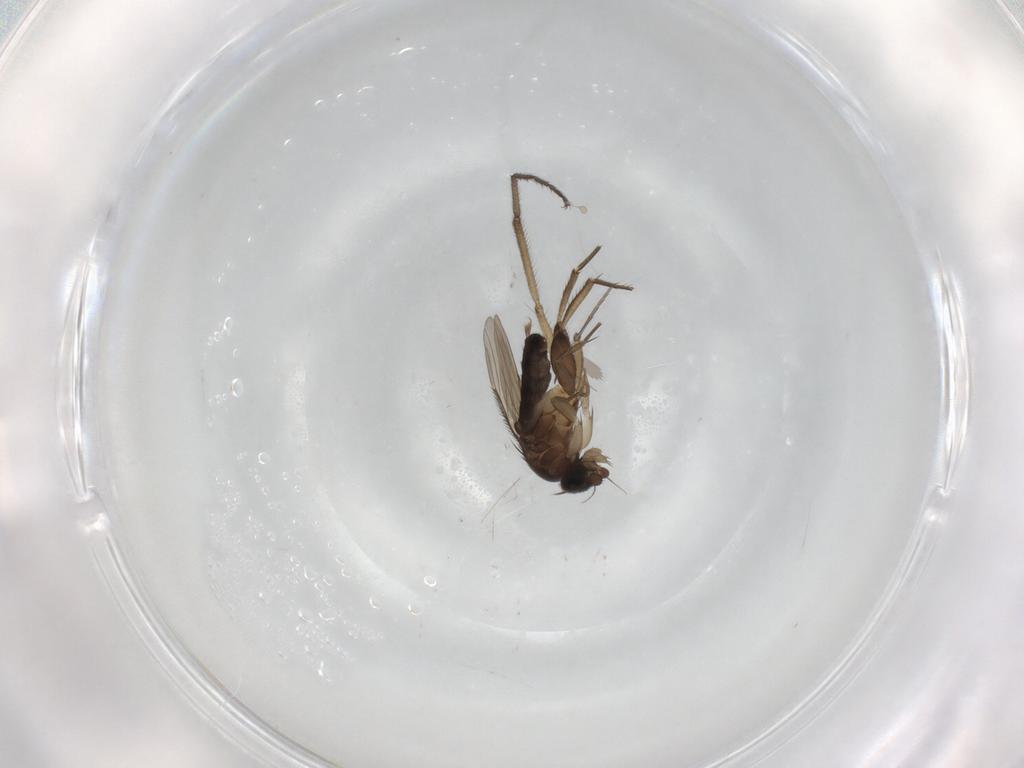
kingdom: Animalia
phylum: Arthropoda
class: Insecta
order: Diptera
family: Empididae
